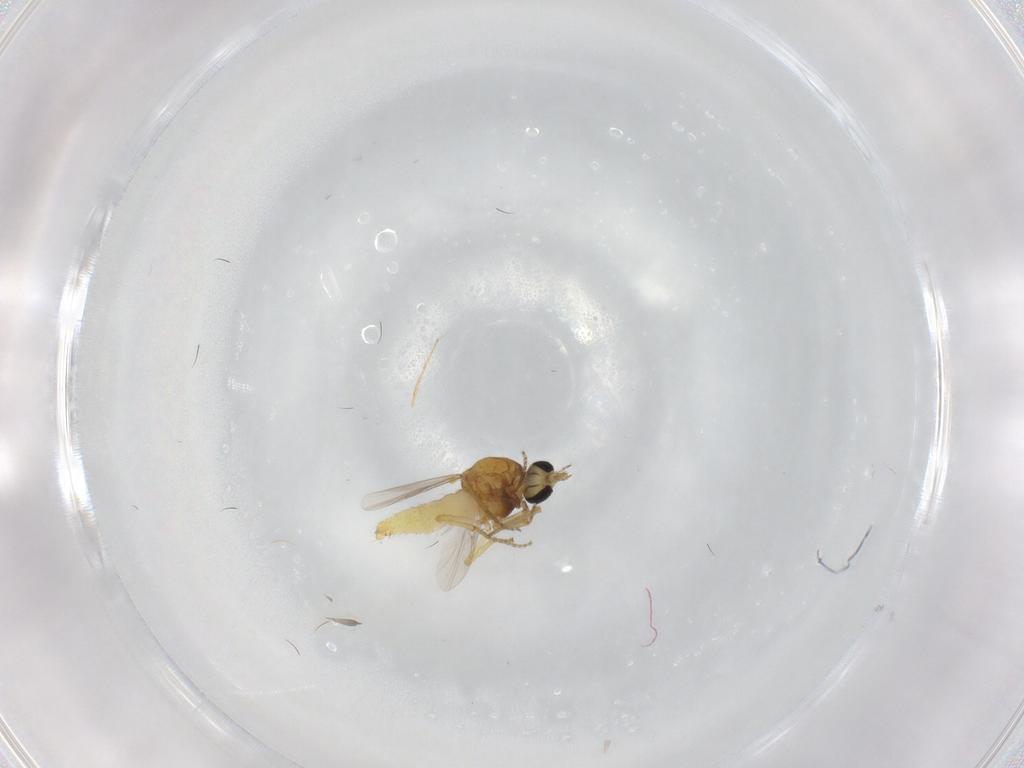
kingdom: Animalia
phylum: Arthropoda
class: Insecta
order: Diptera
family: Ceratopogonidae
